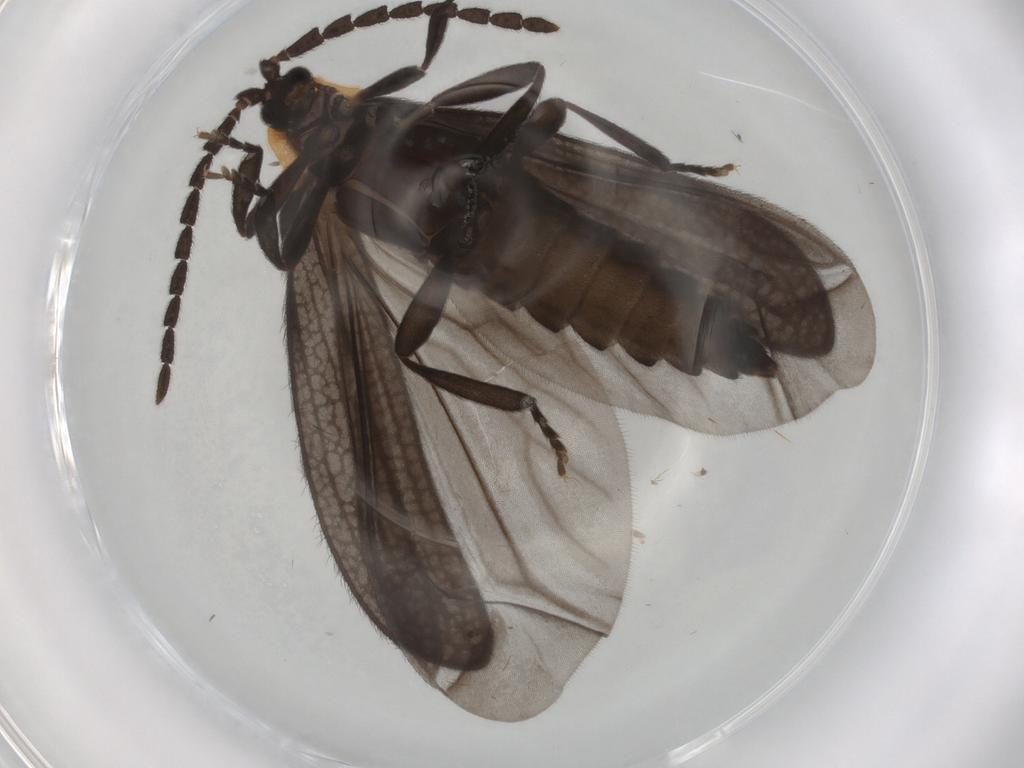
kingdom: Animalia
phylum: Arthropoda
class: Insecta
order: Coleoptera
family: Lycidae
